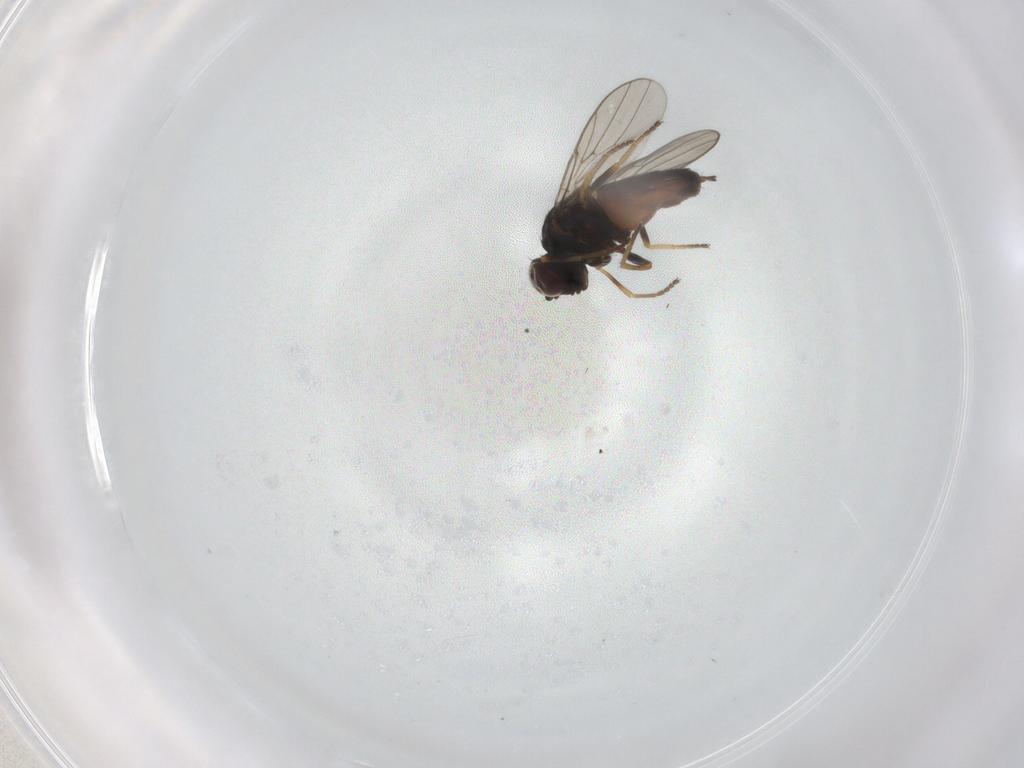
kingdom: Animalia
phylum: Arthropoda
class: Insecta
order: Diptera
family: Chloropidae
